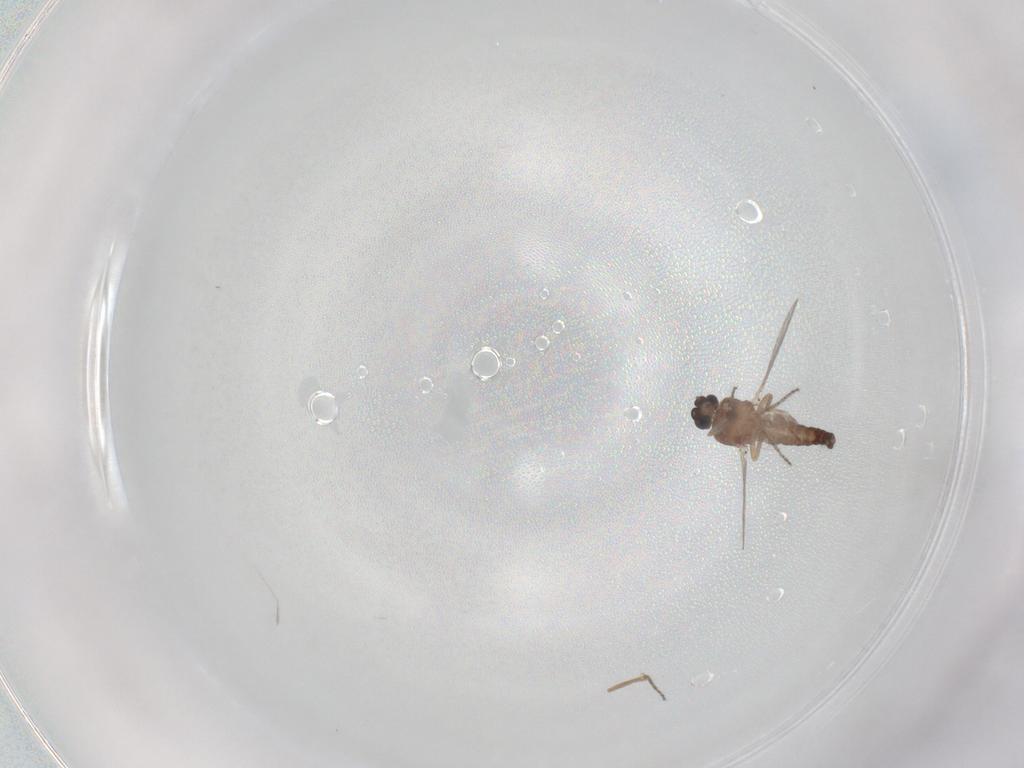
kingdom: Animalia
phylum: Arthropoda
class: Insecta
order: Diptera
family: Ceratopogonidae
